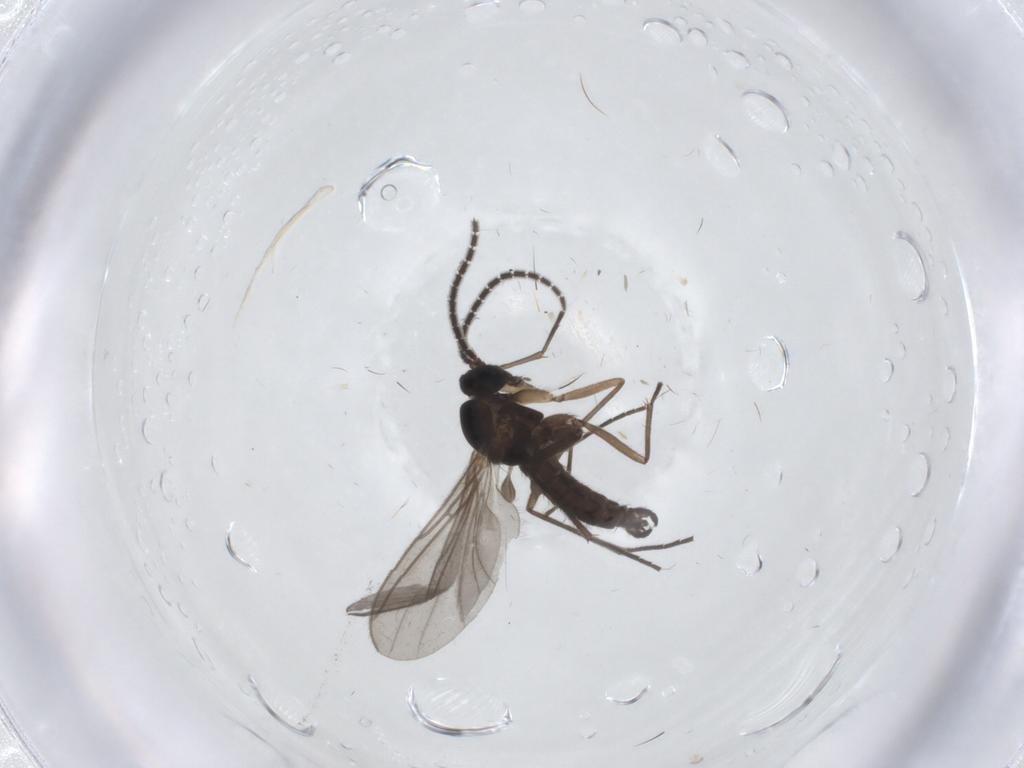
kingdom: Animalia
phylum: Arthropoda
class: Insecta
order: Diptera
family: Sciaridae
